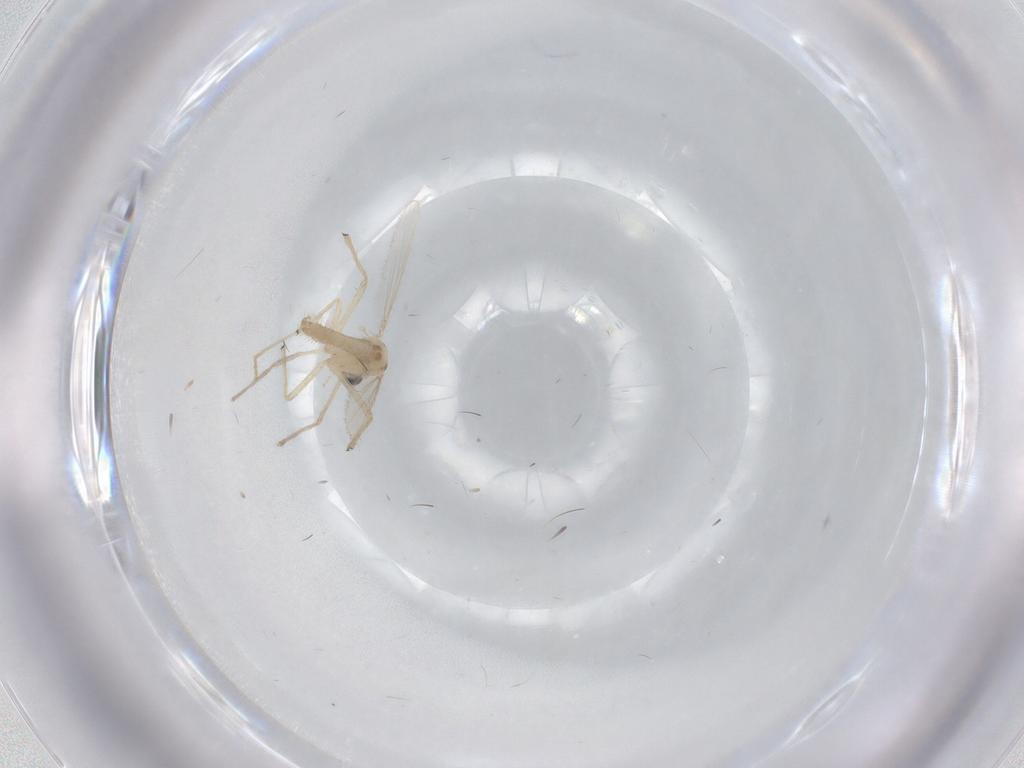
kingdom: Animalia
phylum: Arthropoda
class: Insecta
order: Diptera
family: Chironomidae
